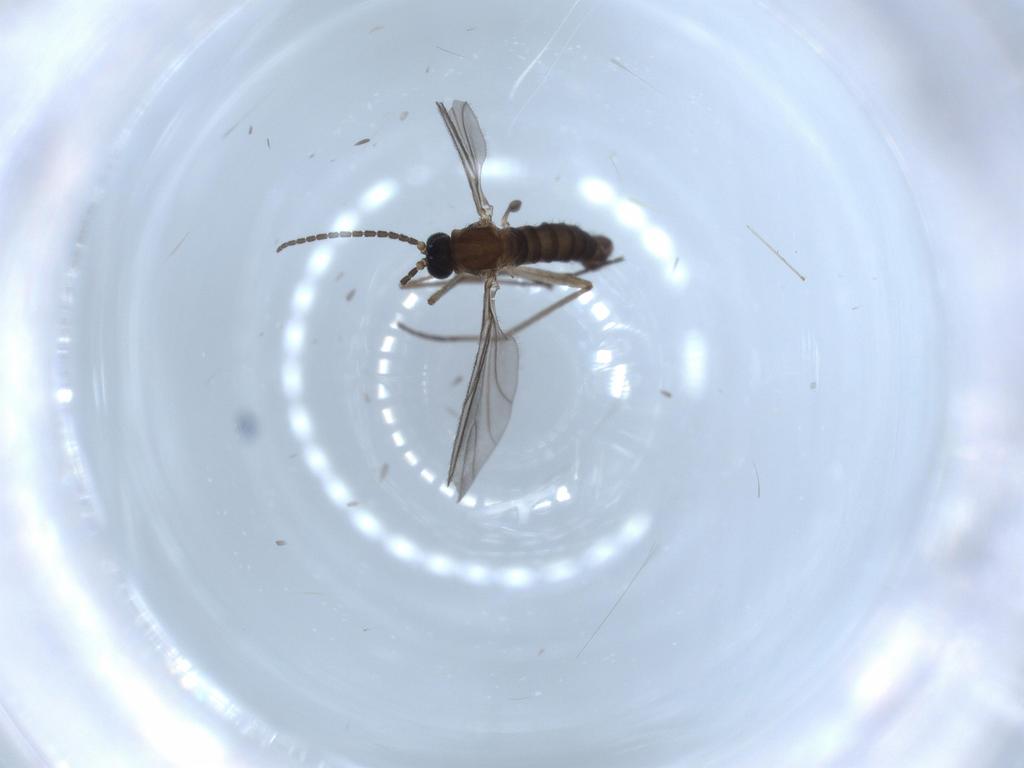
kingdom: Animalia
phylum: Arthropoda
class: Insecta
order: Diptera
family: Sciaridae
